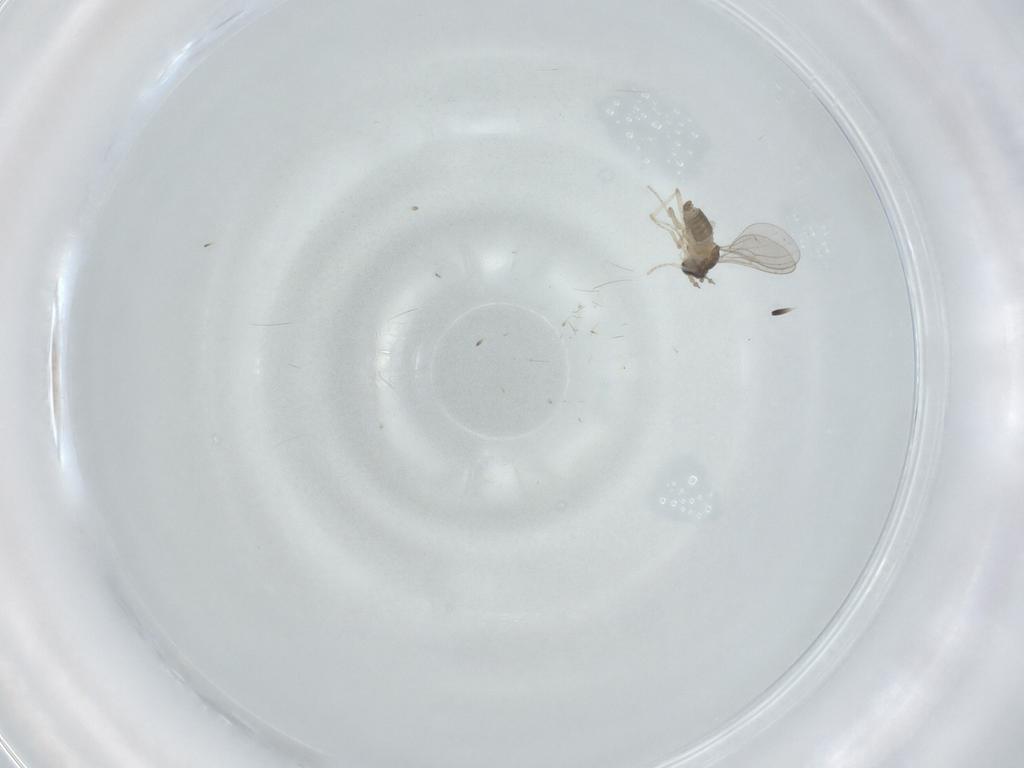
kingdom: Animalia
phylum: Arthropoda
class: Insecta
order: Diptera
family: Cecidomyiidae
